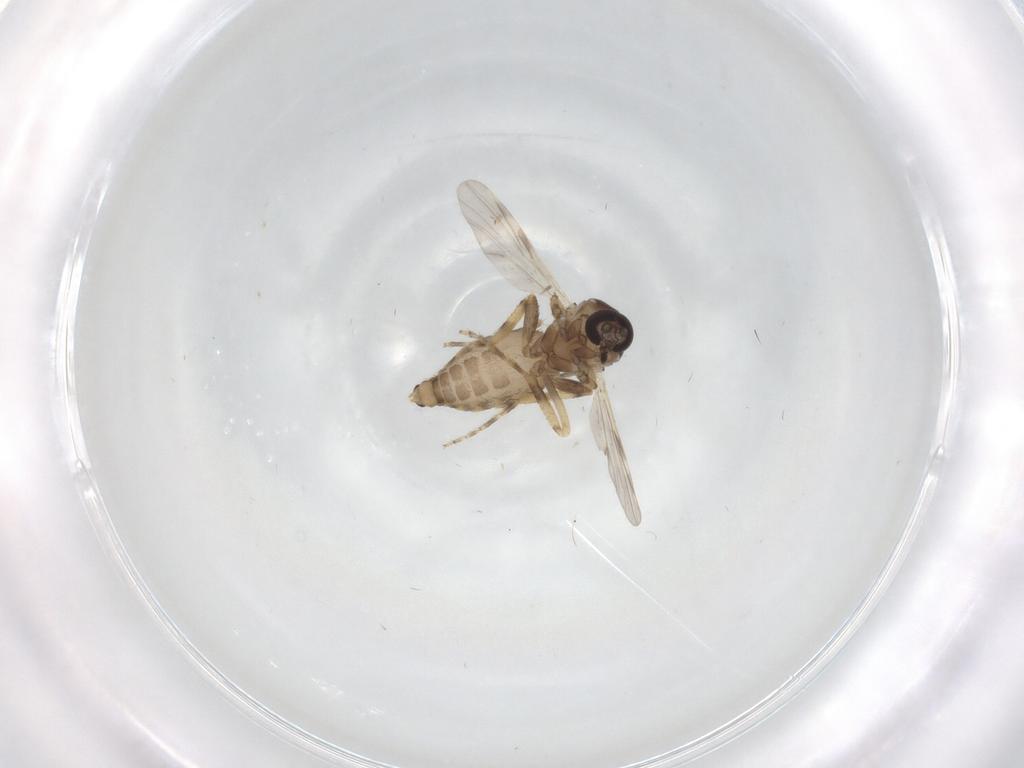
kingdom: Animalia
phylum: Arthropoda
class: Insecta
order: Diptera
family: Ceratopogonidae
